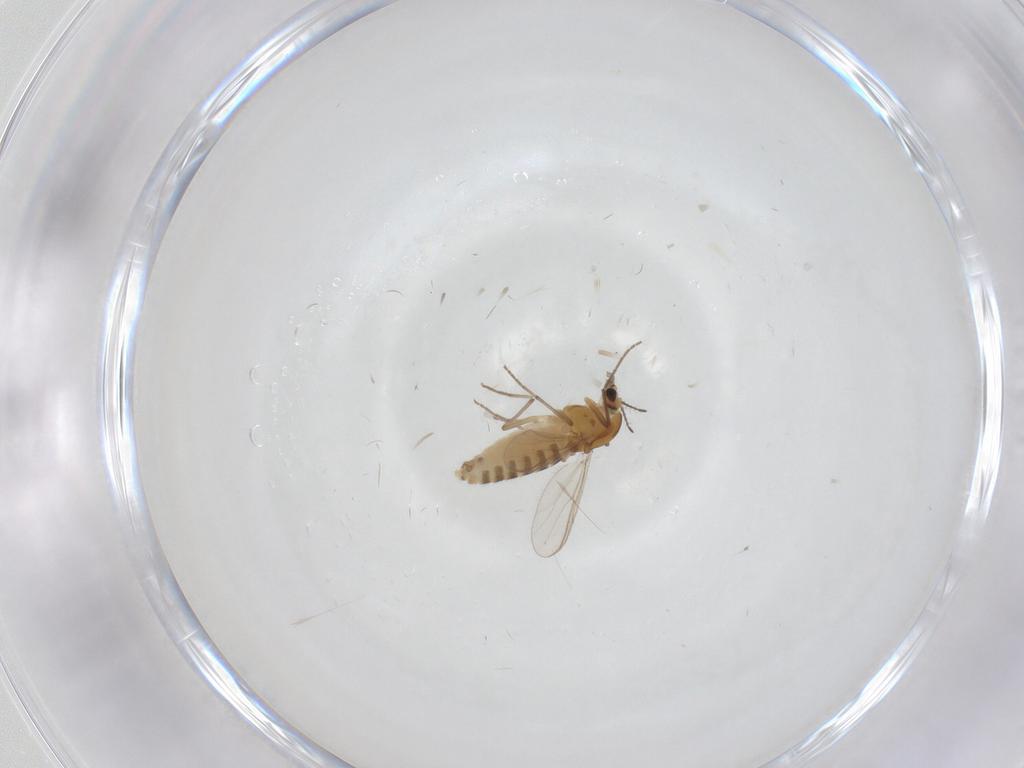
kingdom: Animalia
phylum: Arthropoda
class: Insecta
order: Diptera
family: Chironomidae
